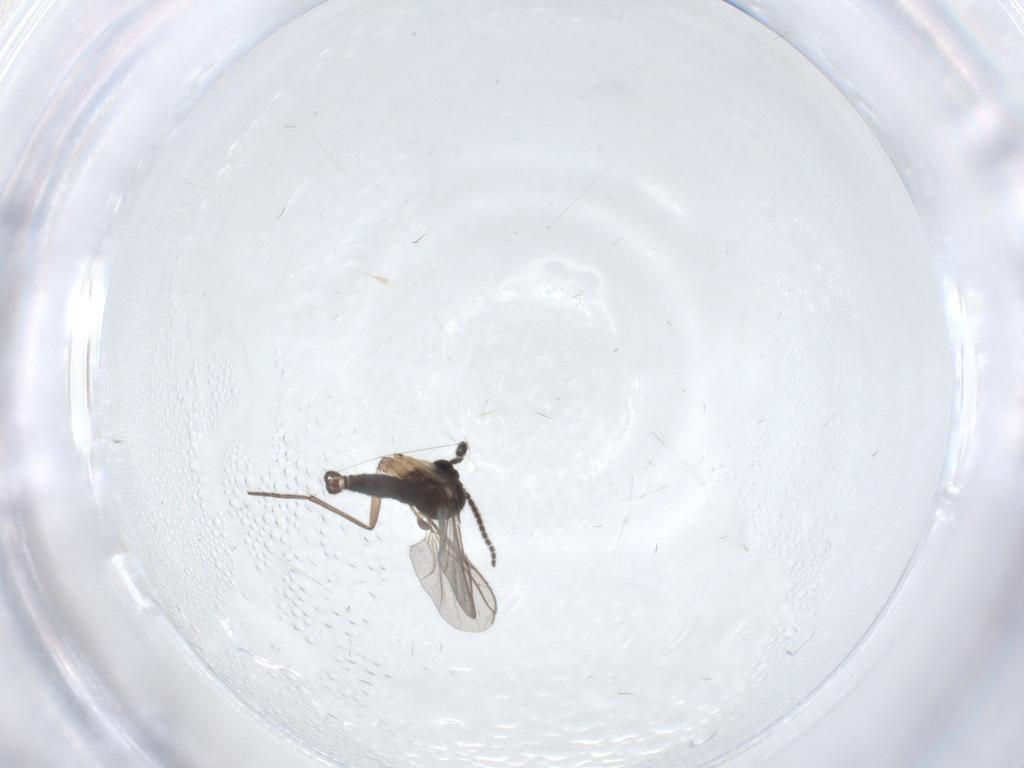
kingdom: Animalia
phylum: Arthropoda
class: Insecta
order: Diptera
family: Sciaridae
